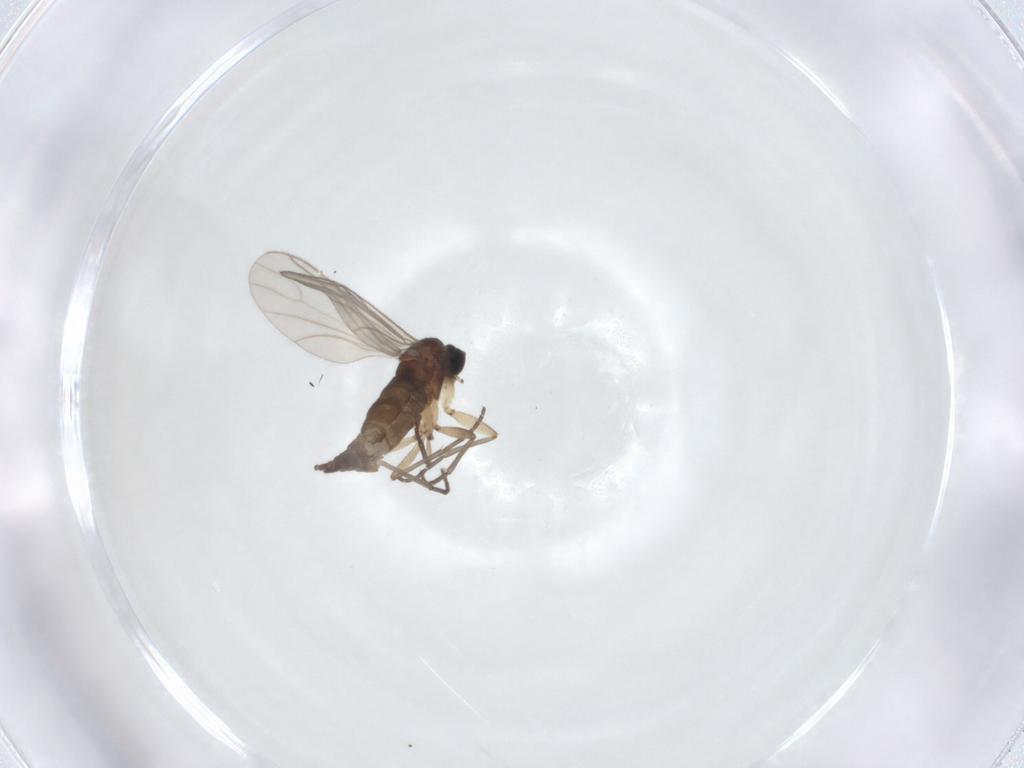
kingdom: Animalia
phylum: Arthropoda
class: Insecta
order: Diptera
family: Sciaridae
